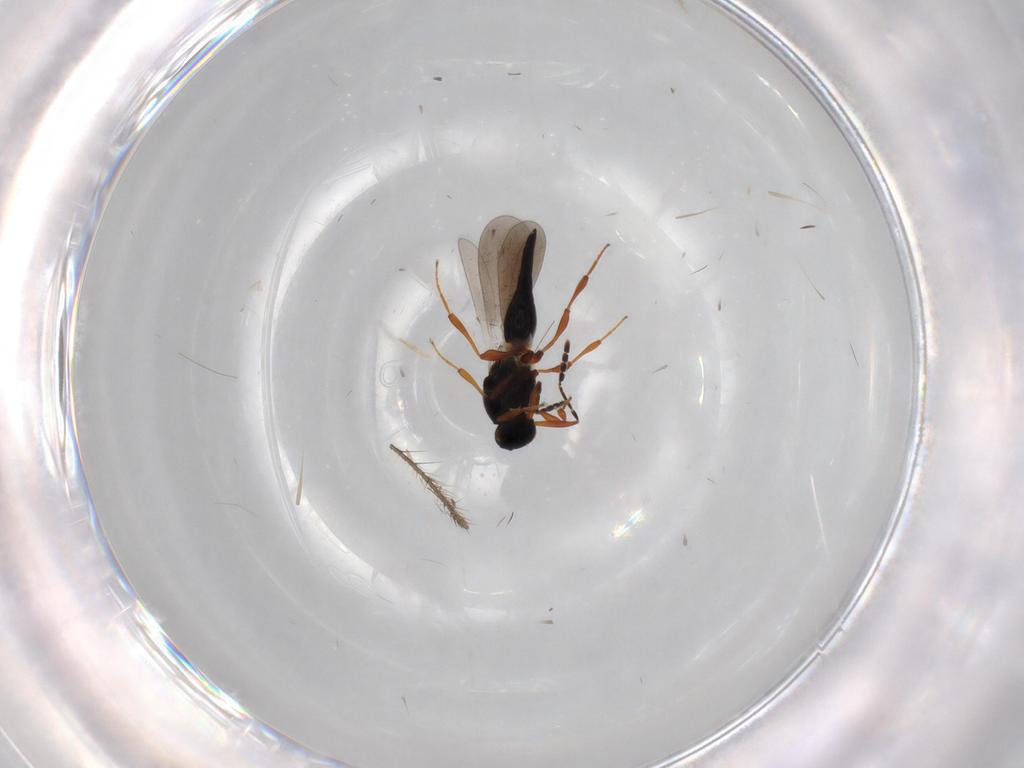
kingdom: Animalia
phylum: Arthropoda
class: Insecta
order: Hymenoptera
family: Platygastridae
